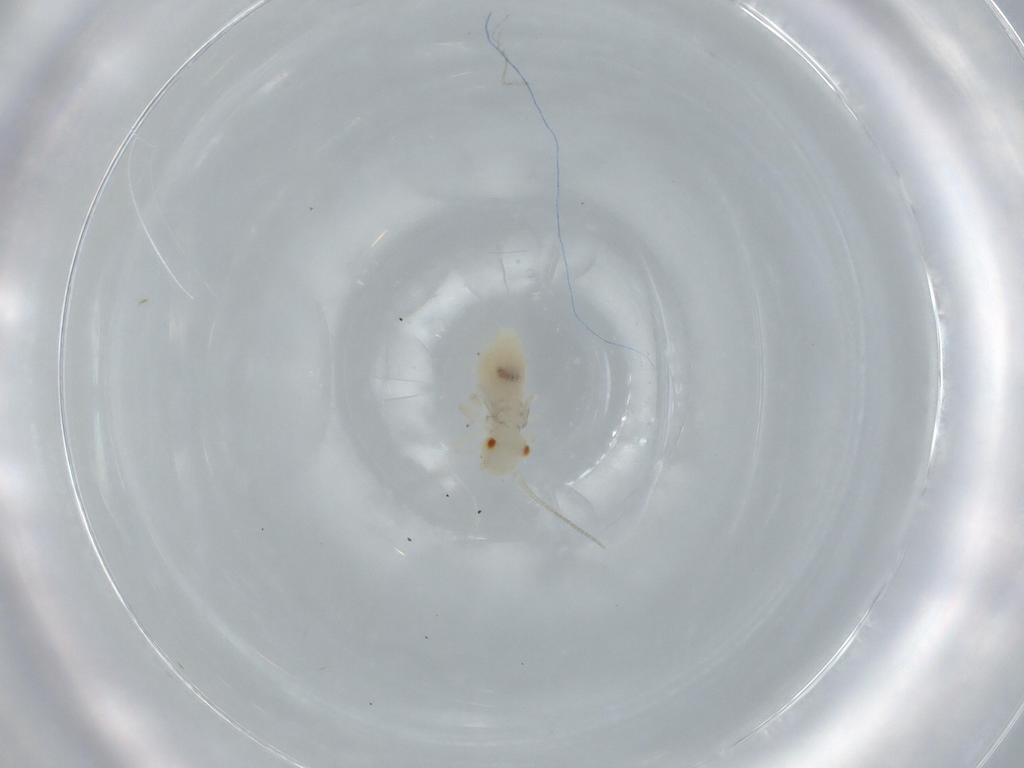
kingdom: Animalia
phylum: Arthropoda
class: Insecta
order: Psocodea
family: Caeciliusidae
